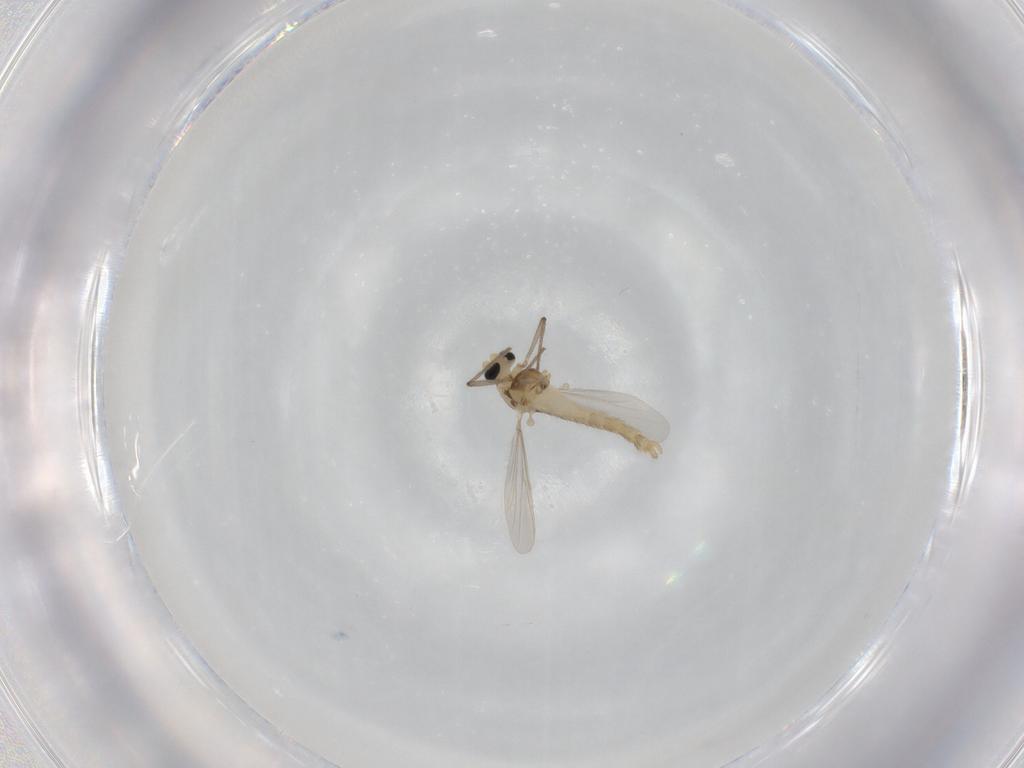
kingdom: Animalia
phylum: Arthropoda
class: Insecta
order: Diptera
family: Chironomidae
